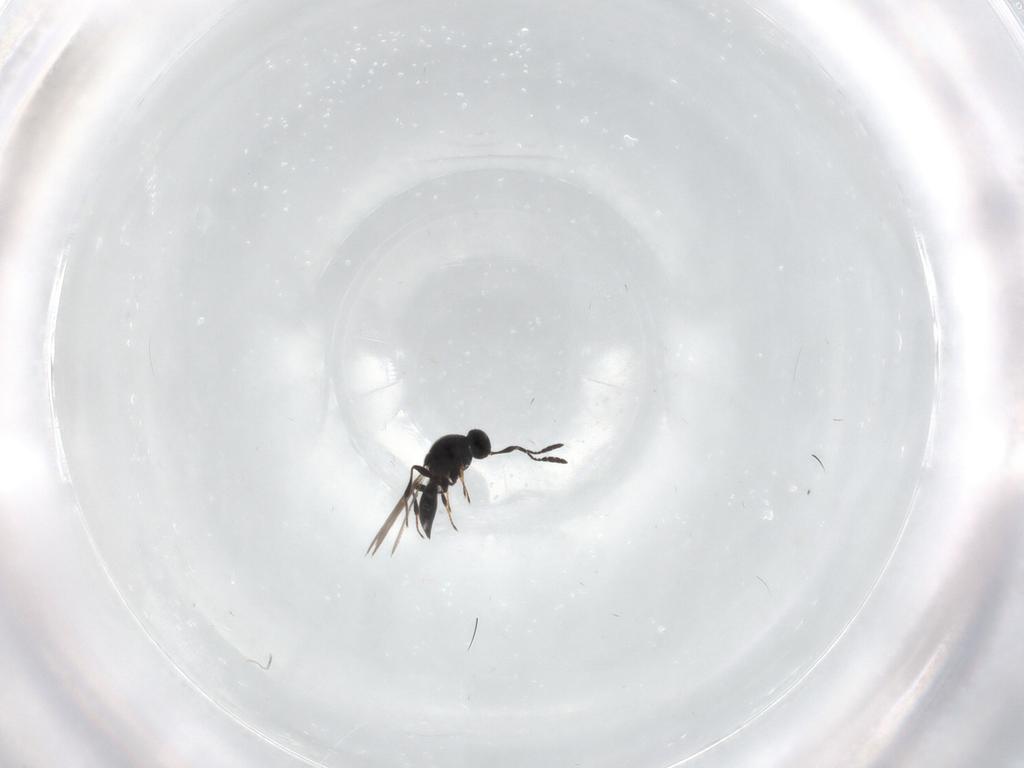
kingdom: Animalia
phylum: Arthropoda
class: Insecta
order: Hymenoptera
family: Platygastridae
